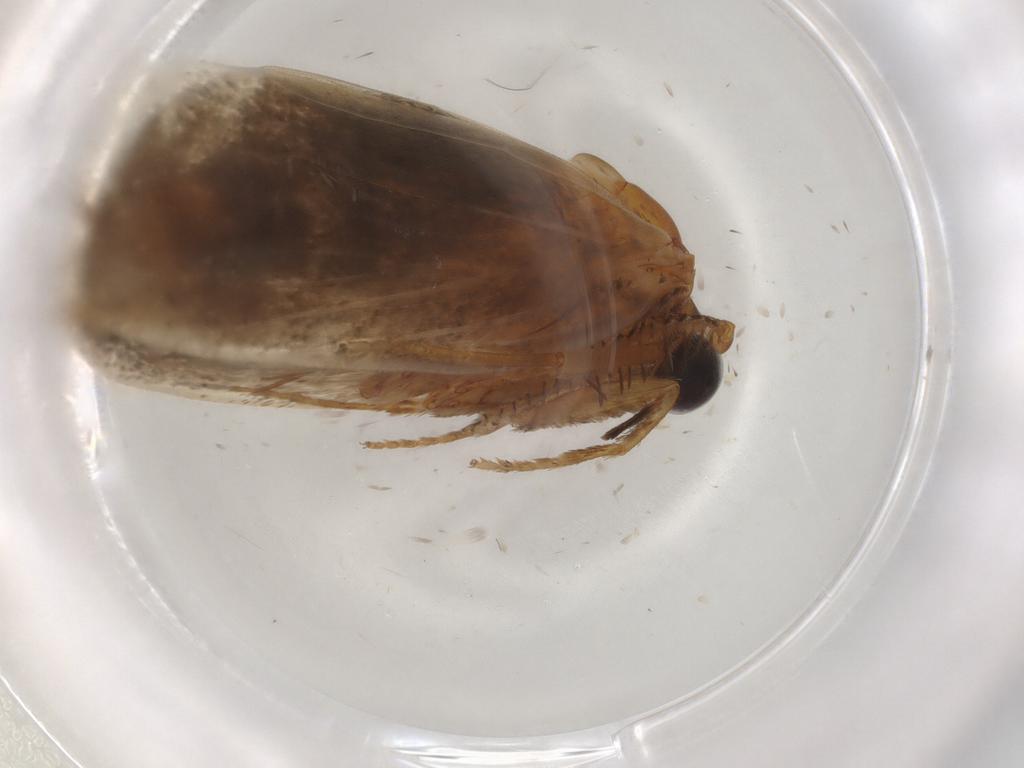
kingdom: Animalia
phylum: Arthropoda
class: Insecta
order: Lepidoptera
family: Eriocottidae
